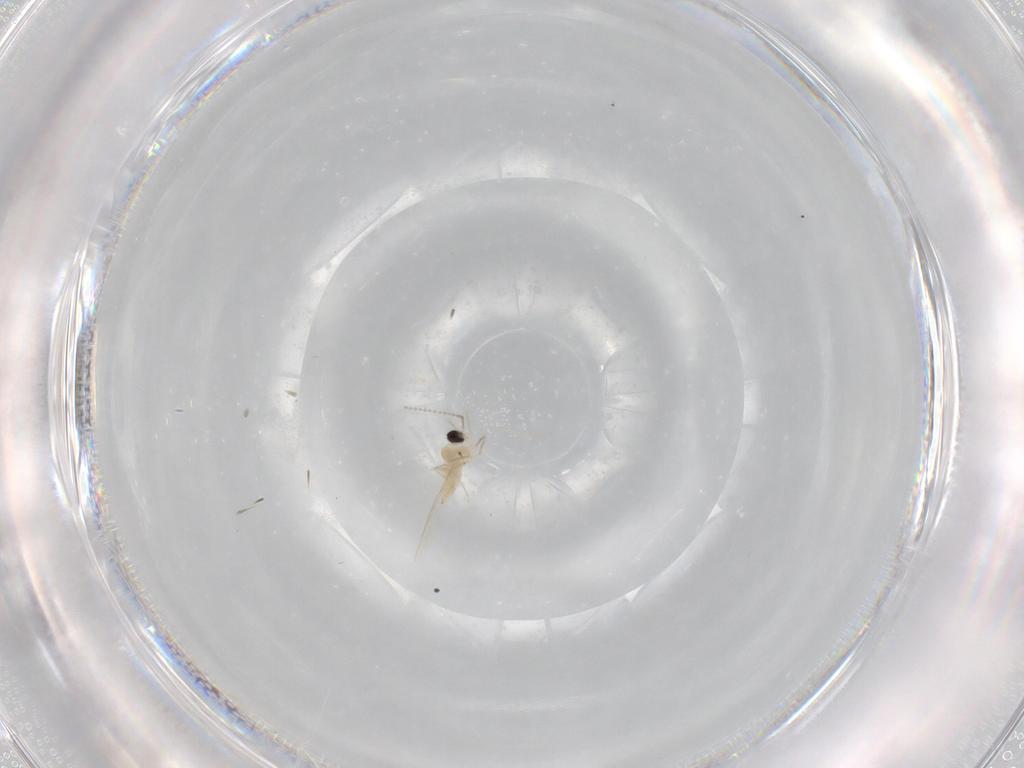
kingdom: Animalia
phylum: Arthropoda
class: Insecta
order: Diptera
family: Cecidomyiidae
